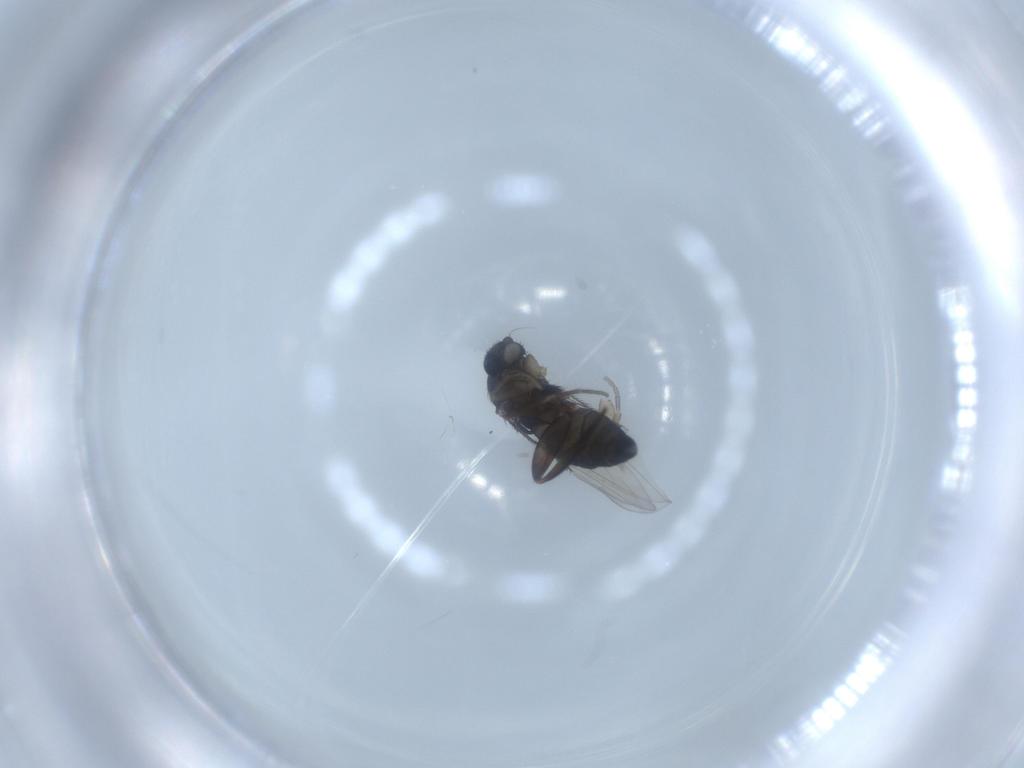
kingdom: Animalia
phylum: Arthropoda
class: Insecta
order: Diptera
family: Phoridae
